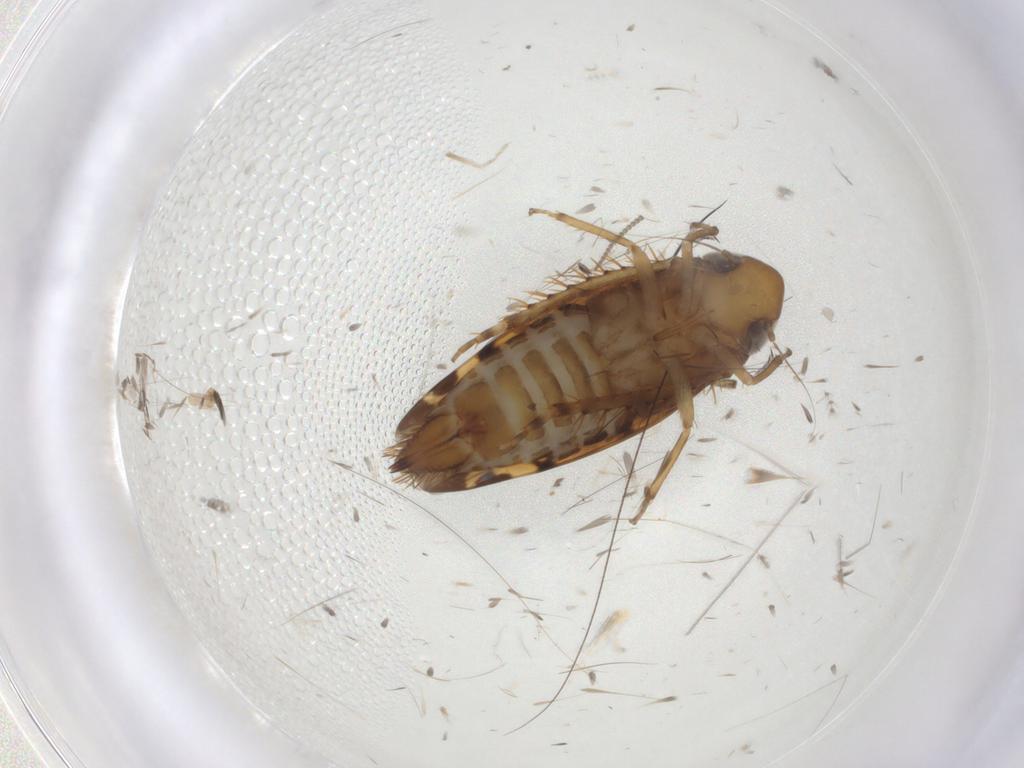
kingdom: Animalia
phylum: Arthropoda
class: Insecta
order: Hemiptera
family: Cicadellidae
